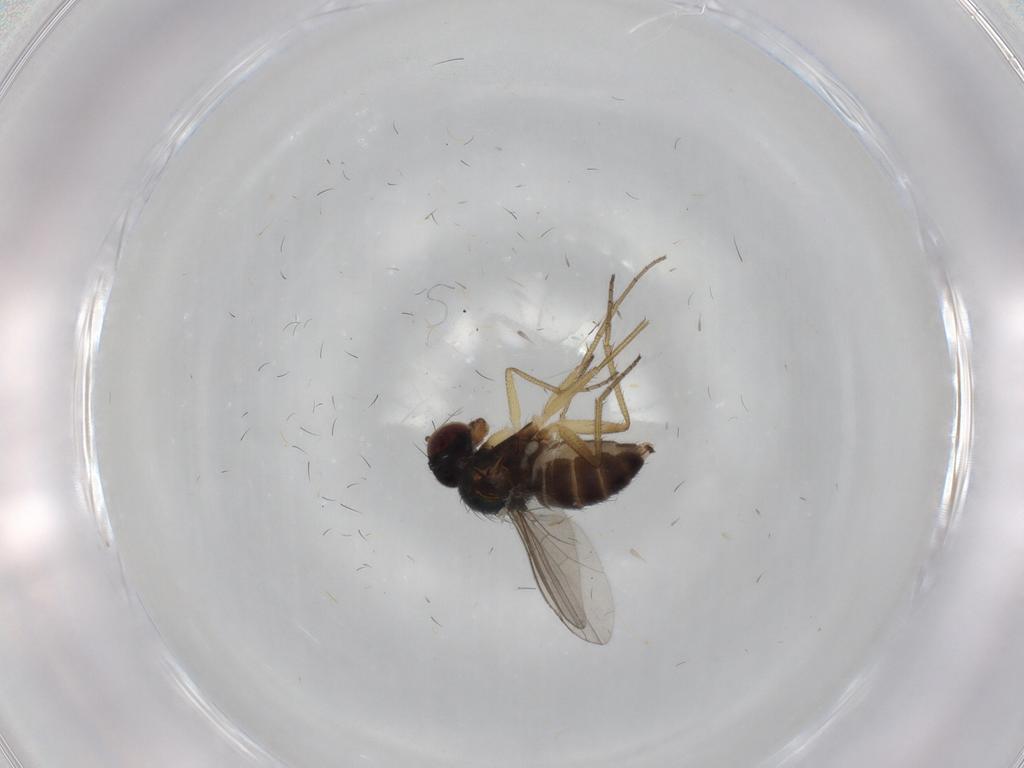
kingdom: Animalia
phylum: Arthropoda
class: Insecta
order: Diptera
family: Dolichopodidae
